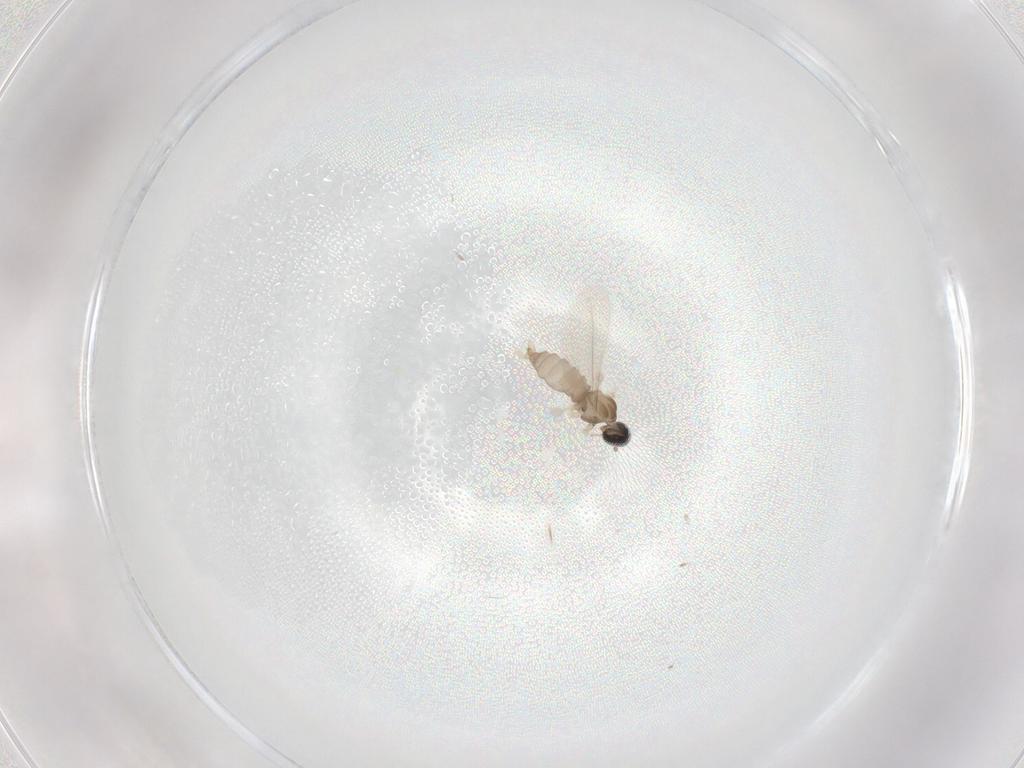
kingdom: Animalia
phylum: Arthropoda
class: Insecta
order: Diptera
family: Cecidomyiidae
